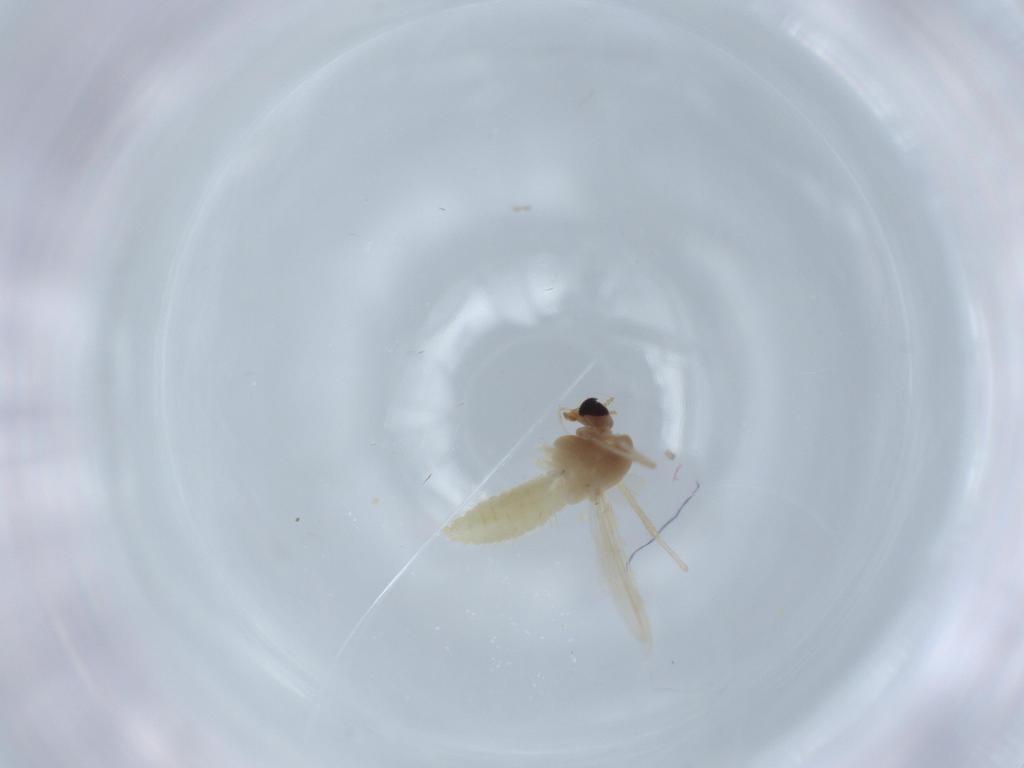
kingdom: Animalia
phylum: Arthropoda
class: Insecta
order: Diptera
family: Chironomidae
